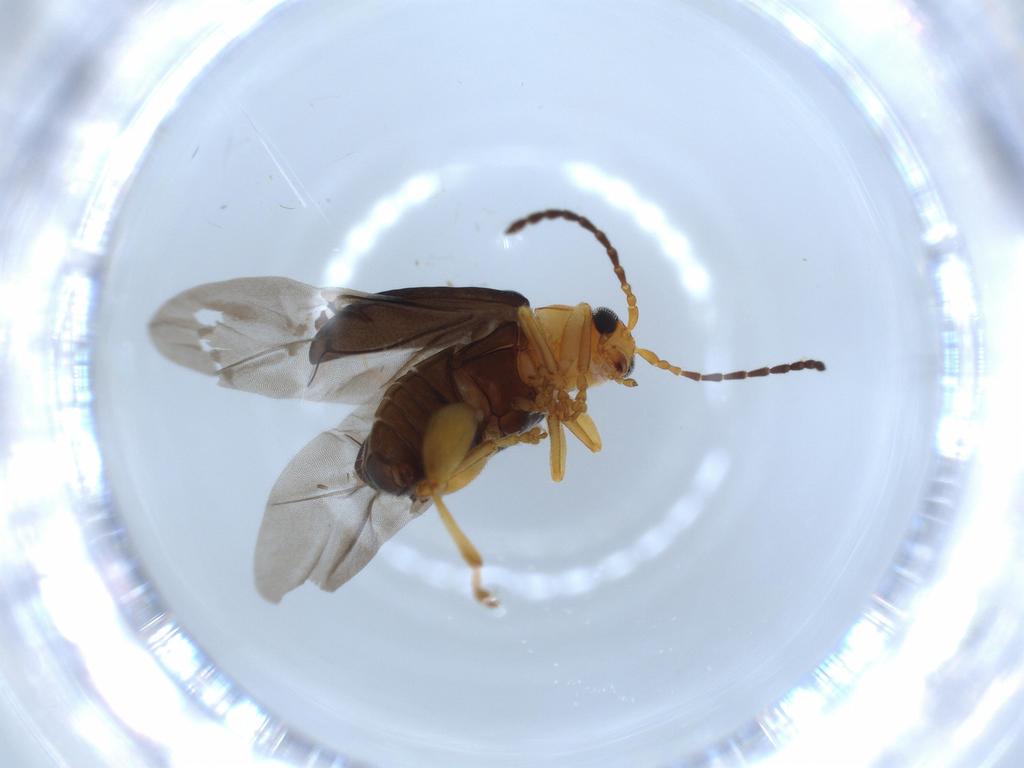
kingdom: Animalia
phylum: Arthropoda
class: Insecta
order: Coleoptera
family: Chrysomelidae
